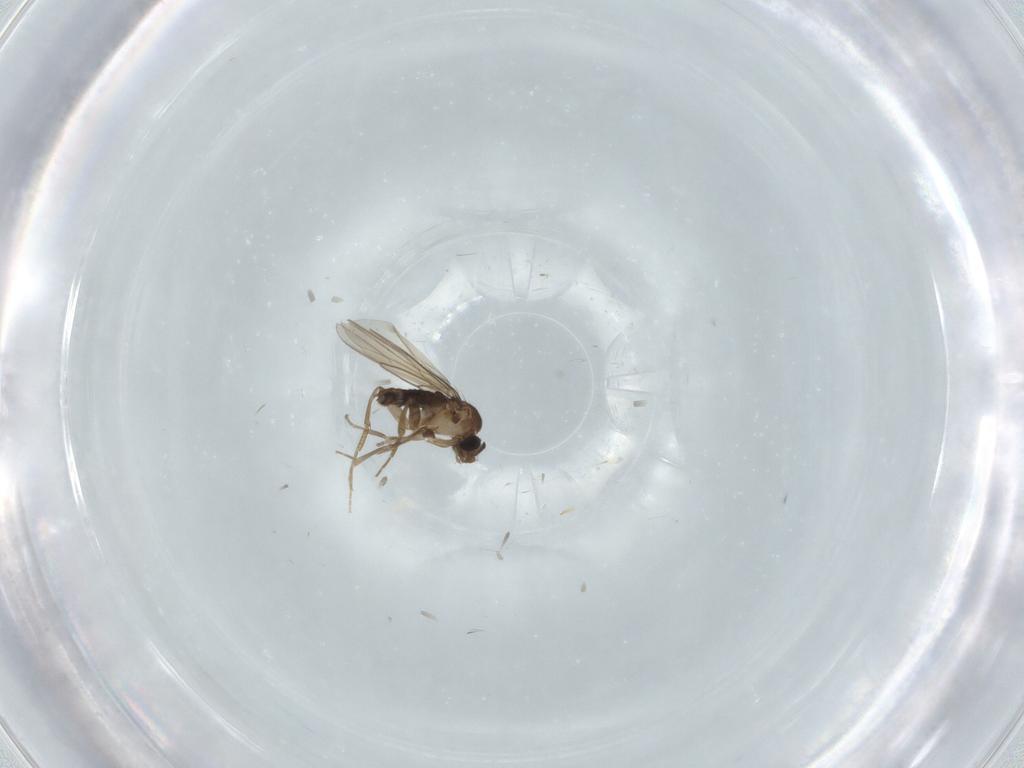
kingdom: Animalia
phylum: Arthropoda
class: Insecta
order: Diptera
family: Phoridae
